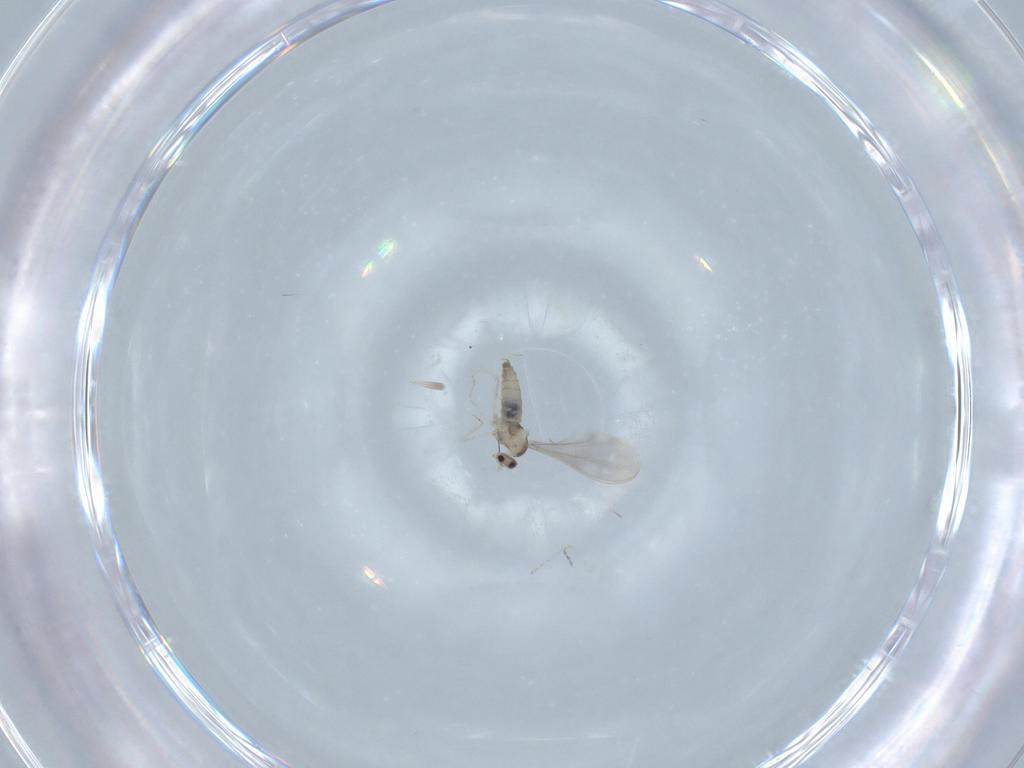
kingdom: Animalia
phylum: Arthropoda
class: Insecta
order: Diptera
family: Cecidomyiidae
